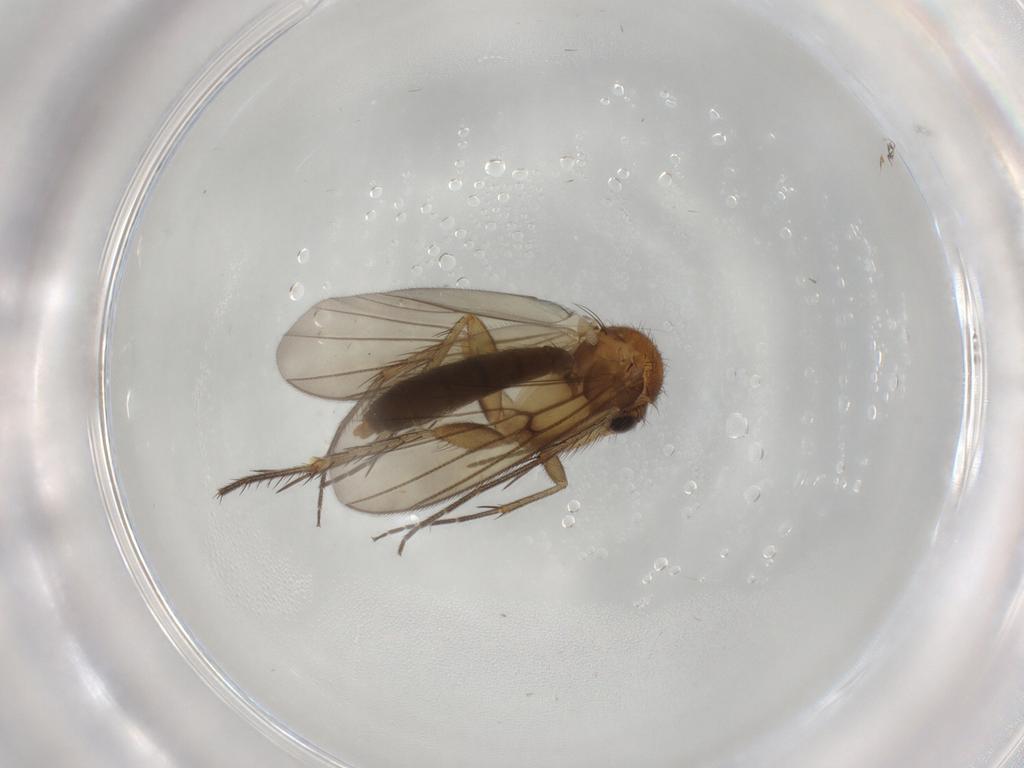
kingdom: Animalia
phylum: Arthropoda
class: Insecta
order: Diptera
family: Mycetophilidae
